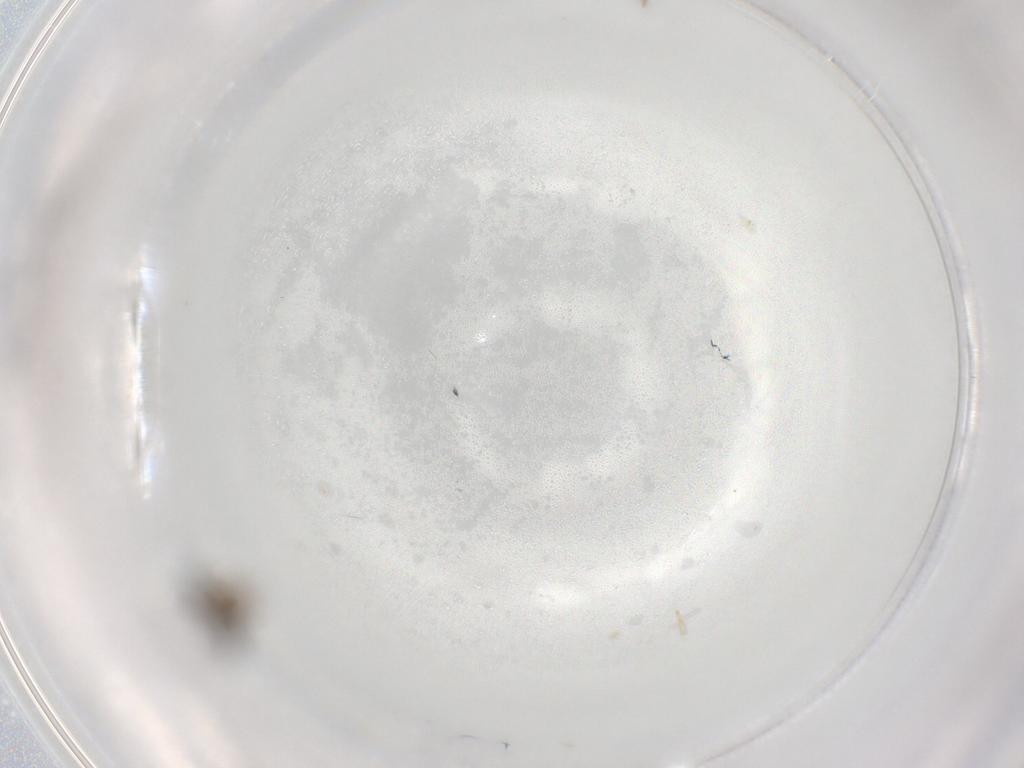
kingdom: Animalia
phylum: Arthropoda
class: Insecta
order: Diptera
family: Cecidomyiidae
